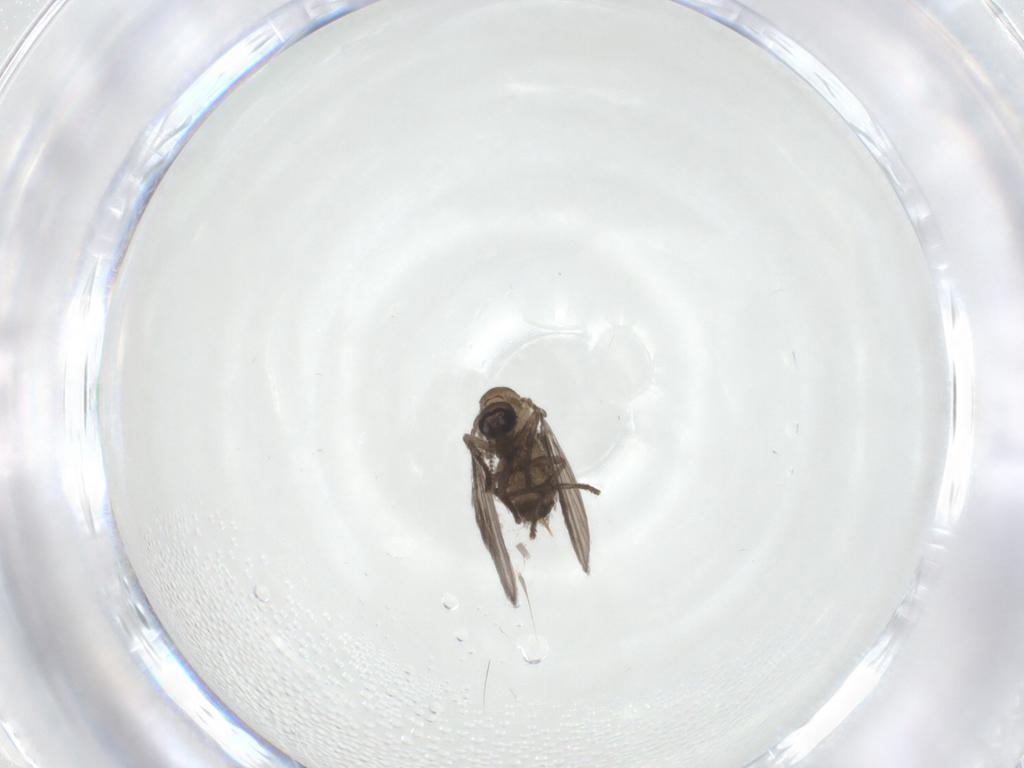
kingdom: Animalia
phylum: Arthropoda
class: Insecta
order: Diptera
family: Psychodidae
